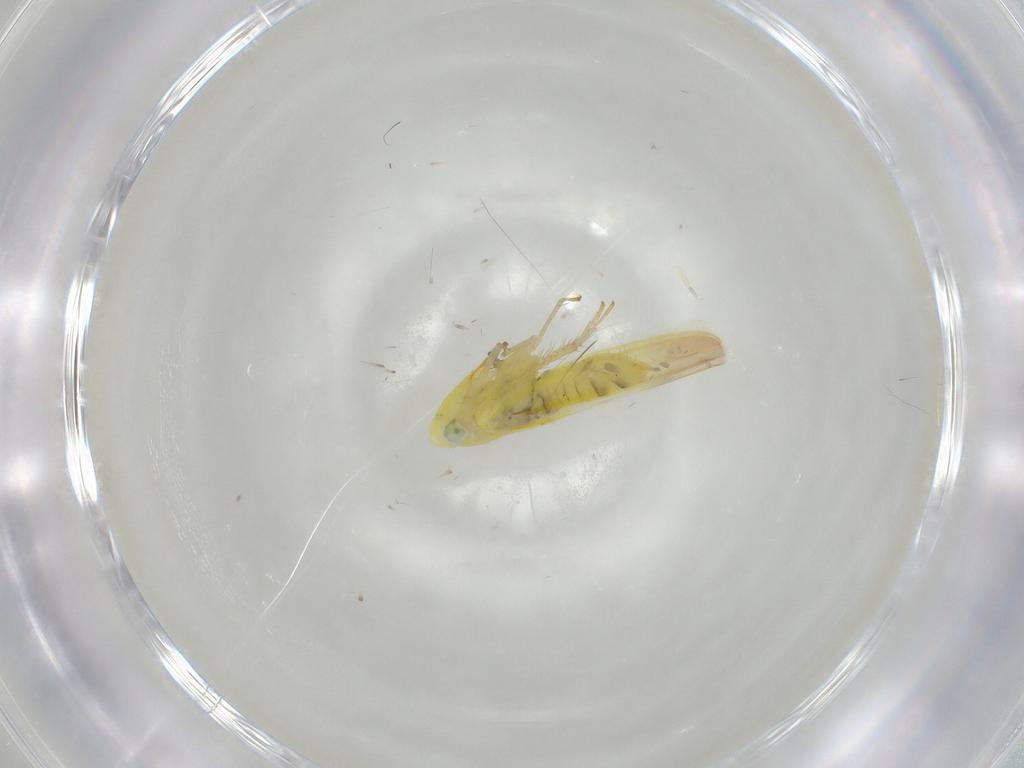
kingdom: Animalia
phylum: Arthropoda
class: Insecta
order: Hemiptera
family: Cicadellidae
